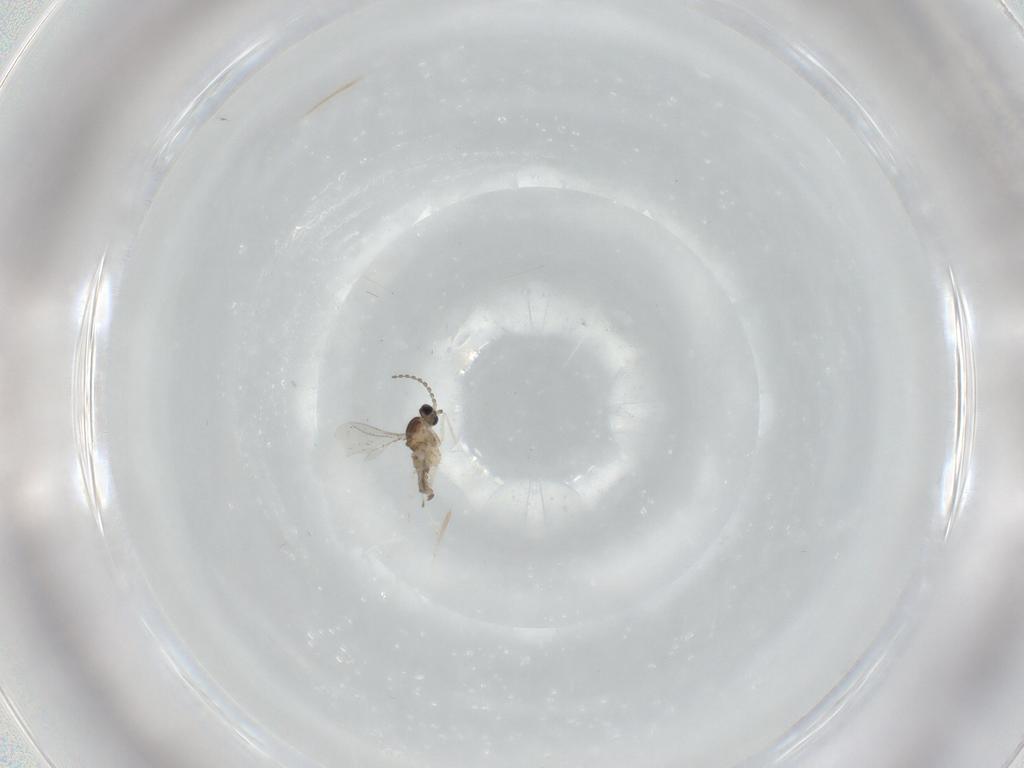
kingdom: Animalia
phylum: Arthropoda
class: Insecta
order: Diptera
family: Cecidomyiidae
